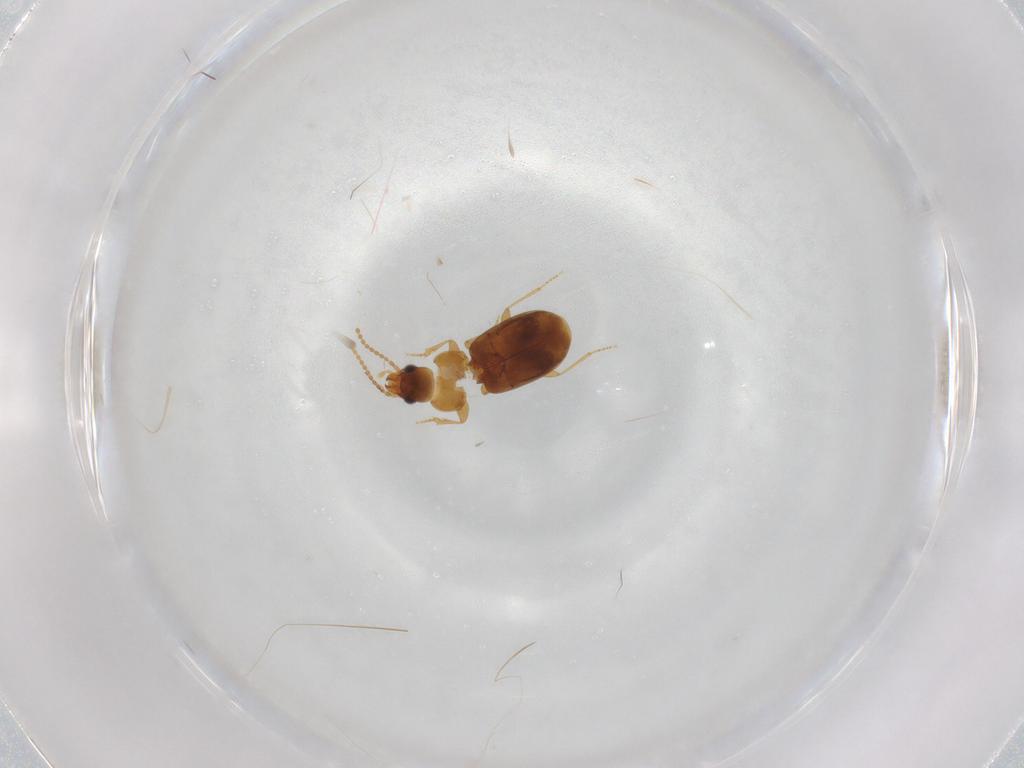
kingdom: Animalia
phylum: Arthropoda
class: Insecta
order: Coleoptera
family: Carabidae
